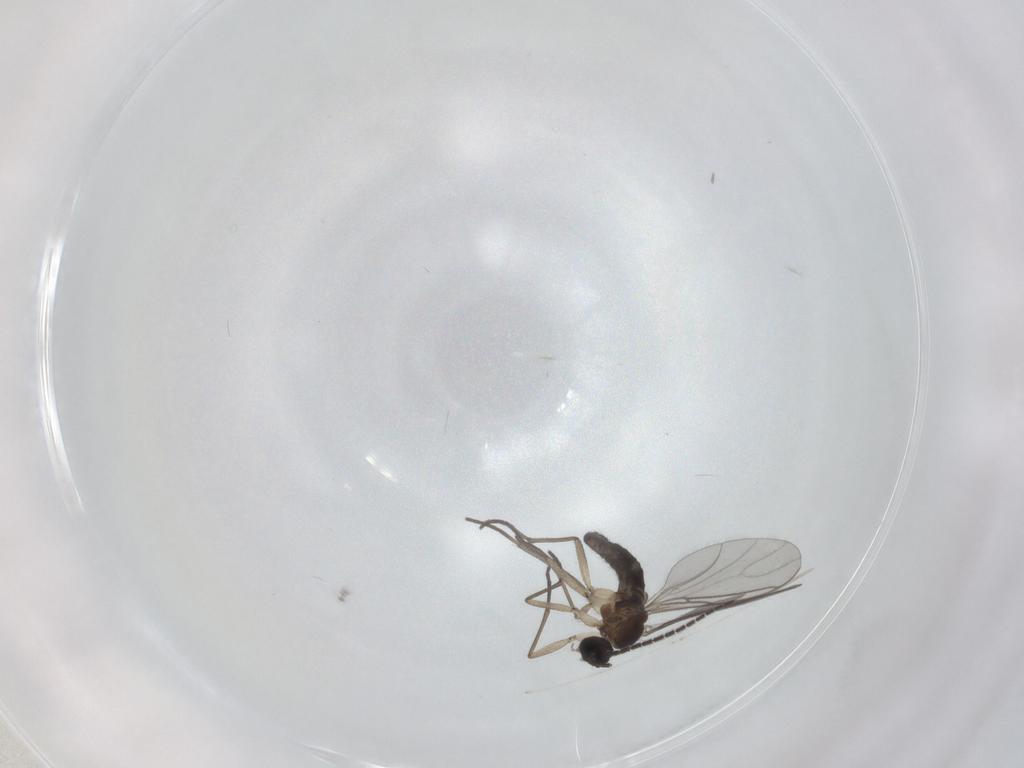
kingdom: Animalia
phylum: Arthropoda
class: Insecta
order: Diptera
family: Sciaridae
